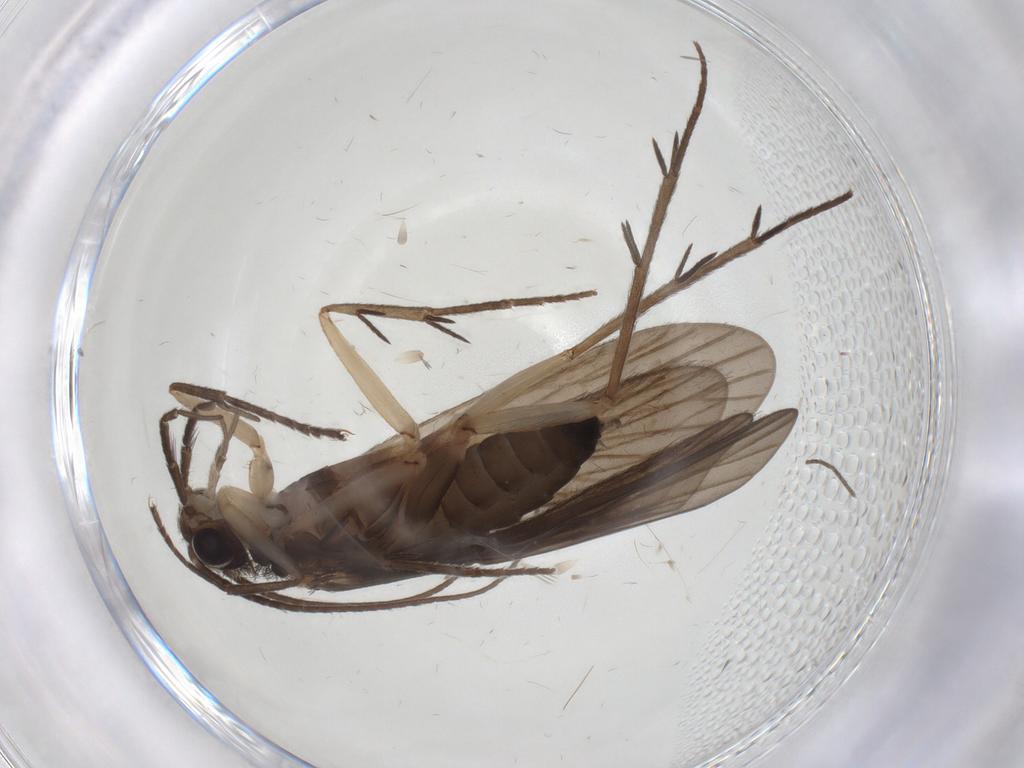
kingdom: Animalia
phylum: Arthropoda
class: Insecta
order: Trichoptera
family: Philopotamidae
